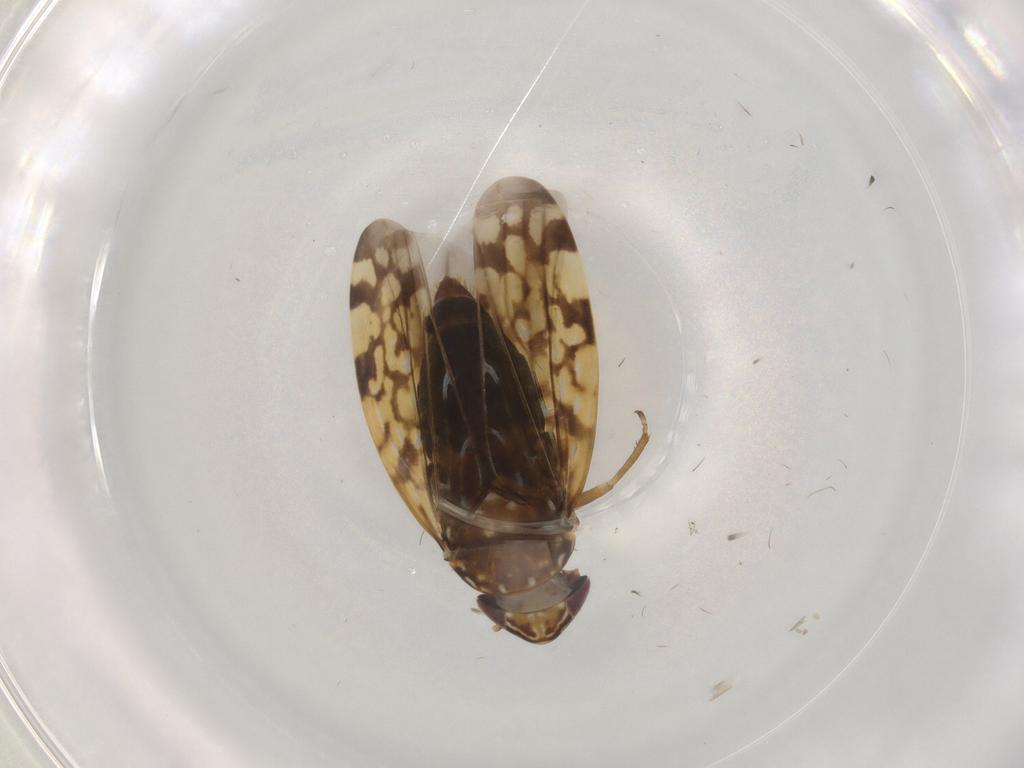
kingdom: Animalia
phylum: Arthropoda
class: Insecta
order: Hemiptera
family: Cicadellidae
